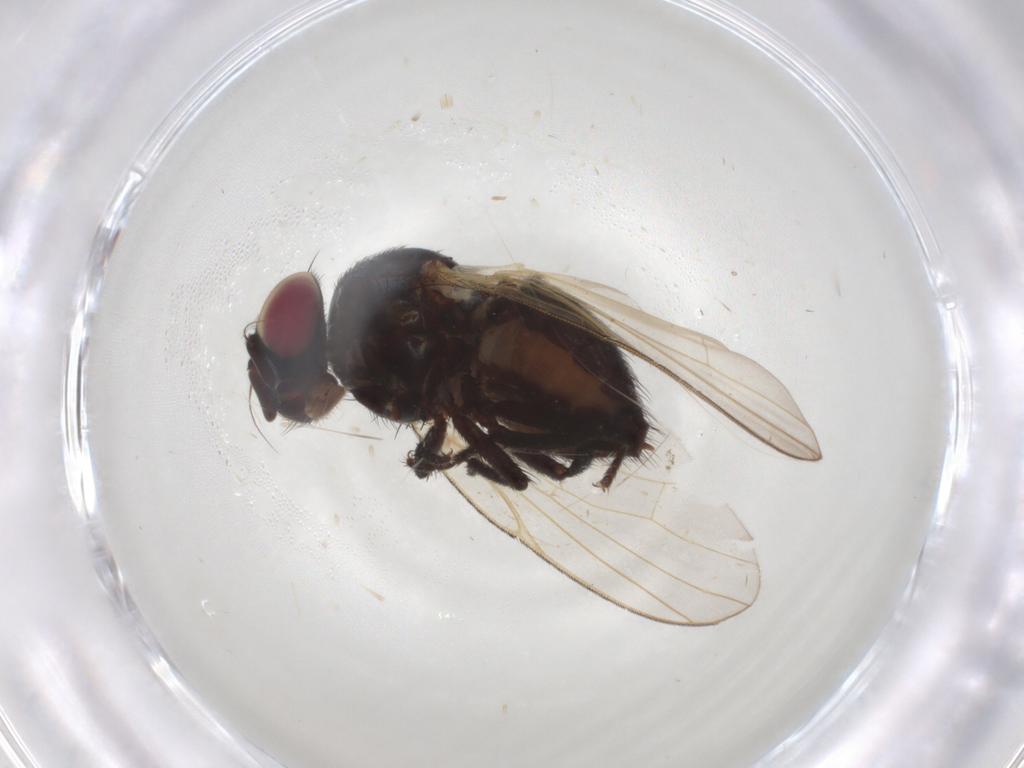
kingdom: Animalia
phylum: Arthropoda
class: Insecta
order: Diptera
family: Ceratopogonidae
